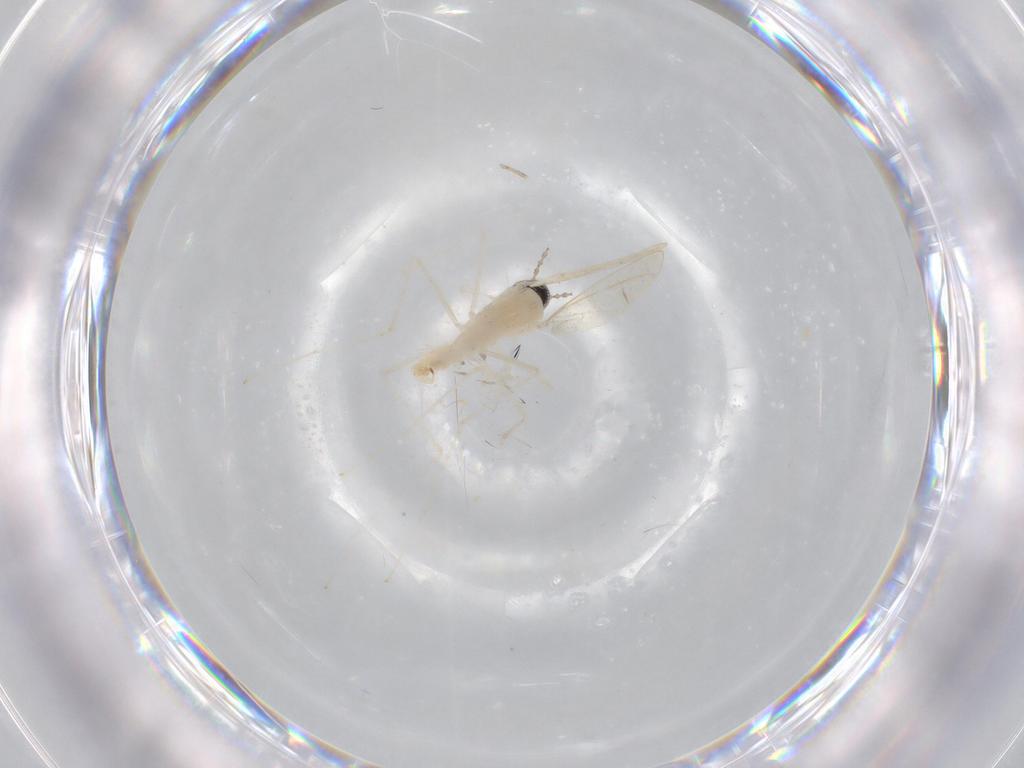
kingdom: Animalia
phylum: Arthropoda
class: Insecta
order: Diptera
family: Cecidomyiidae
